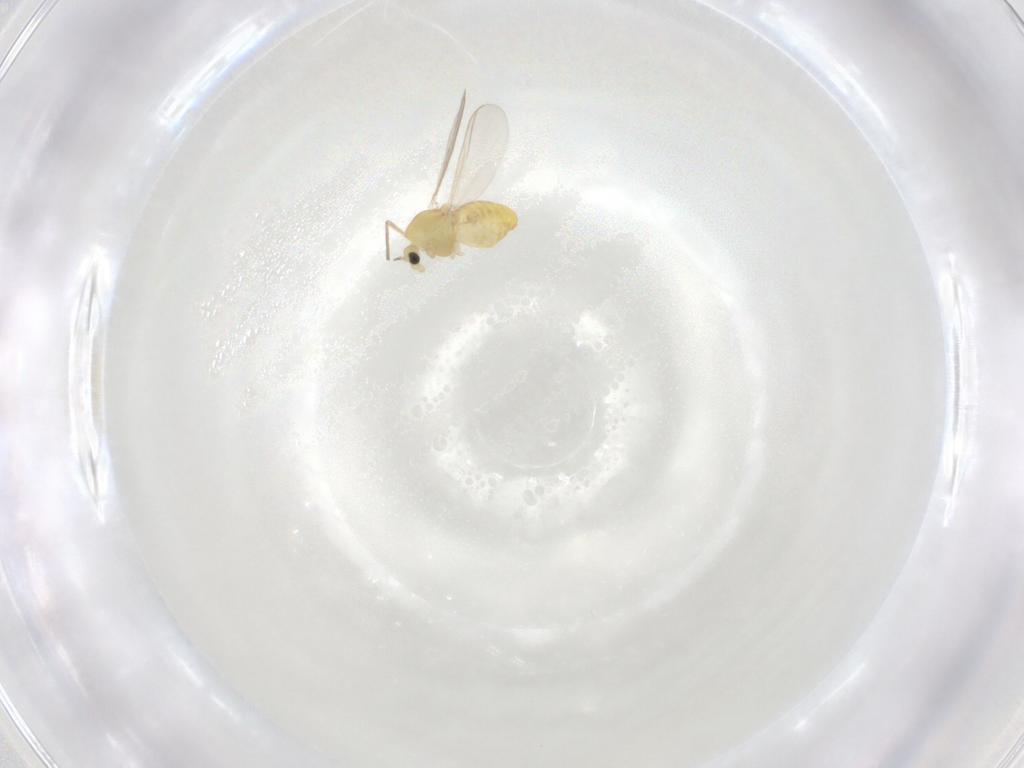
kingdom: Animalia
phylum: Arthropoda
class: Insecta
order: Diptera
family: Chironomidae
